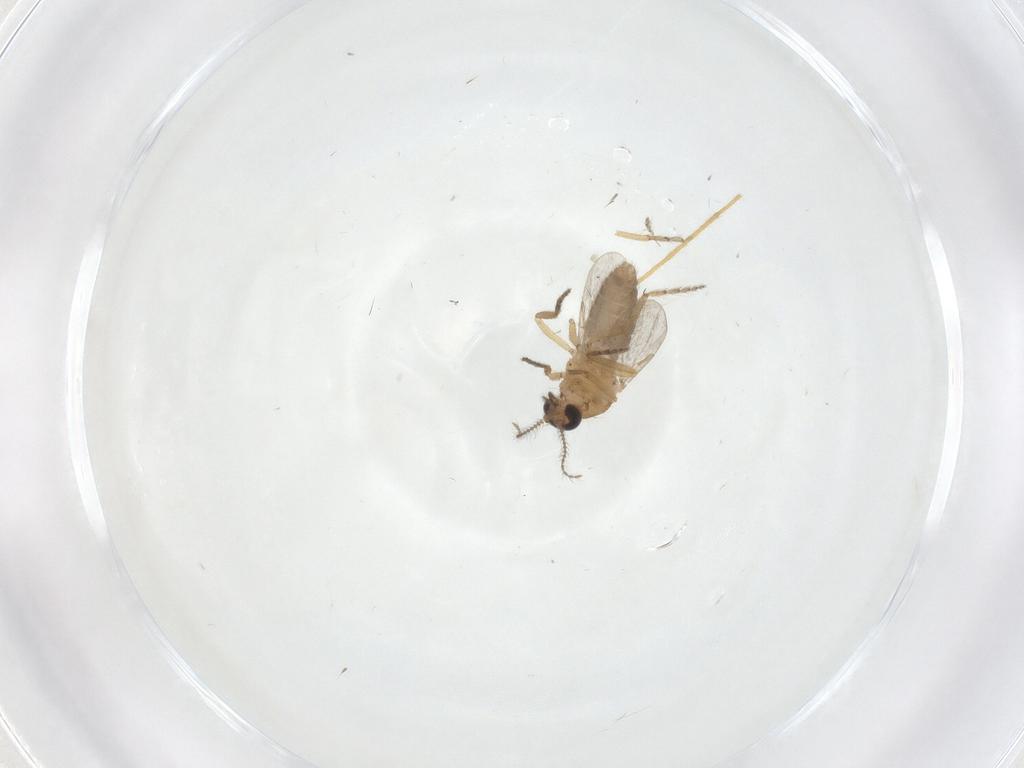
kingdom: Animalia
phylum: Arthropoda
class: Insecta
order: Diptera
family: Ceratopogonidae
